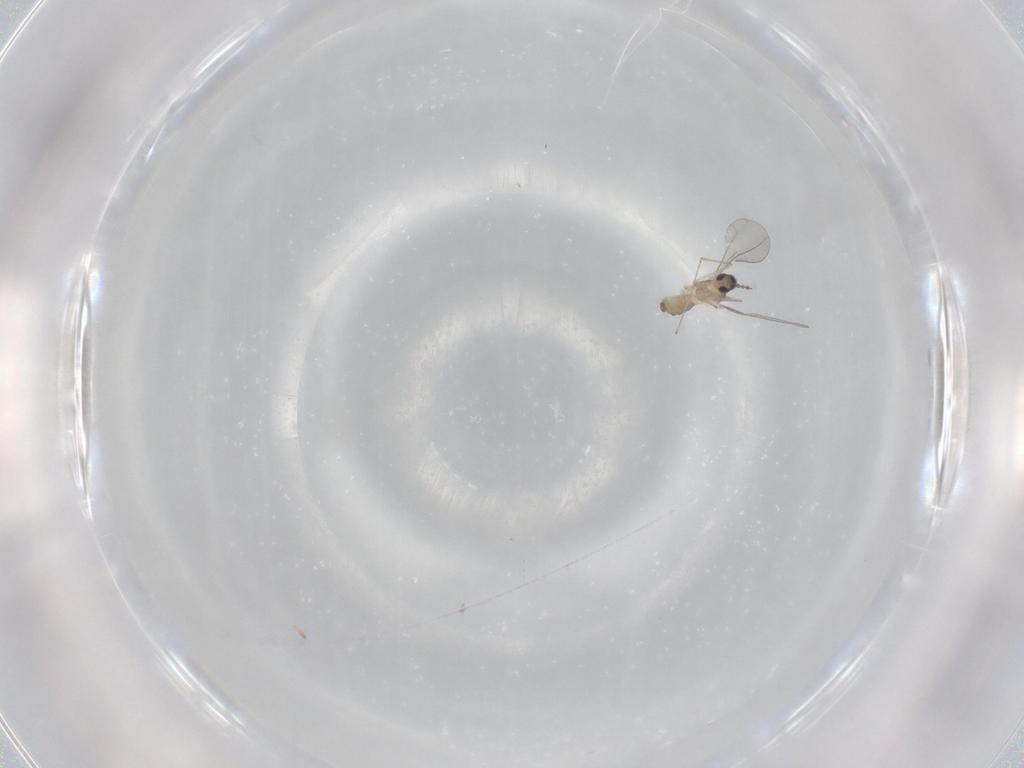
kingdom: Animalia
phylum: Arthropoda
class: Insecta
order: Diptera
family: Cecidomyiidae
